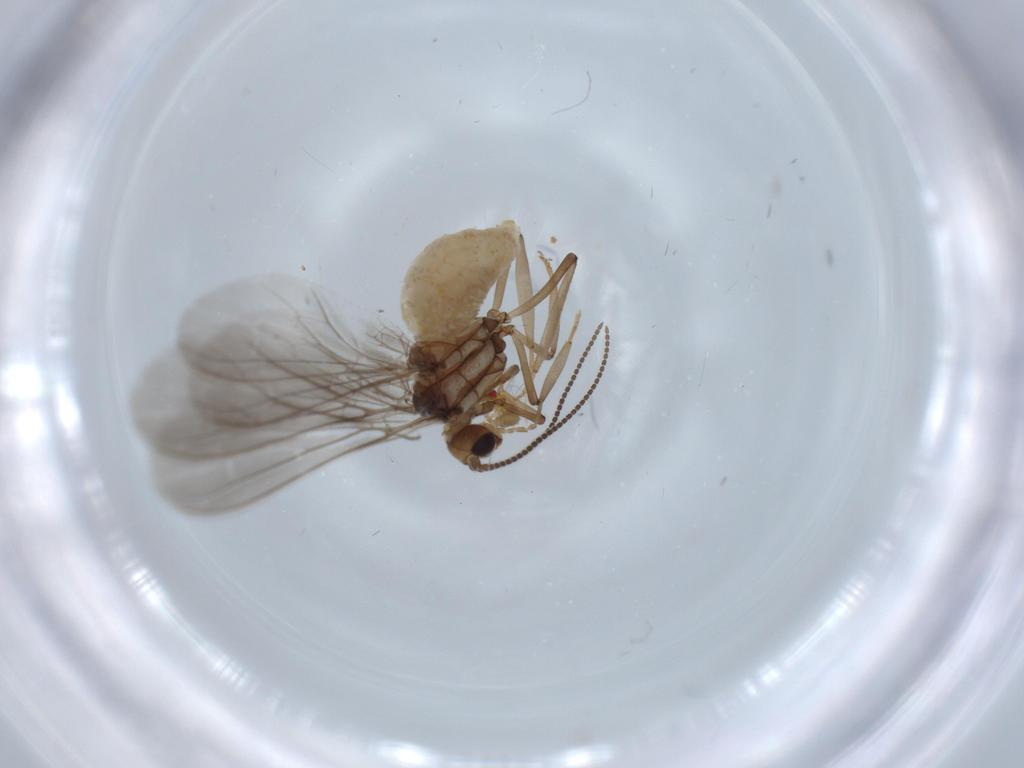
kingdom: Animalia
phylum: Arthropoda
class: Insecta
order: Neuroptera
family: Coniopterygidae
